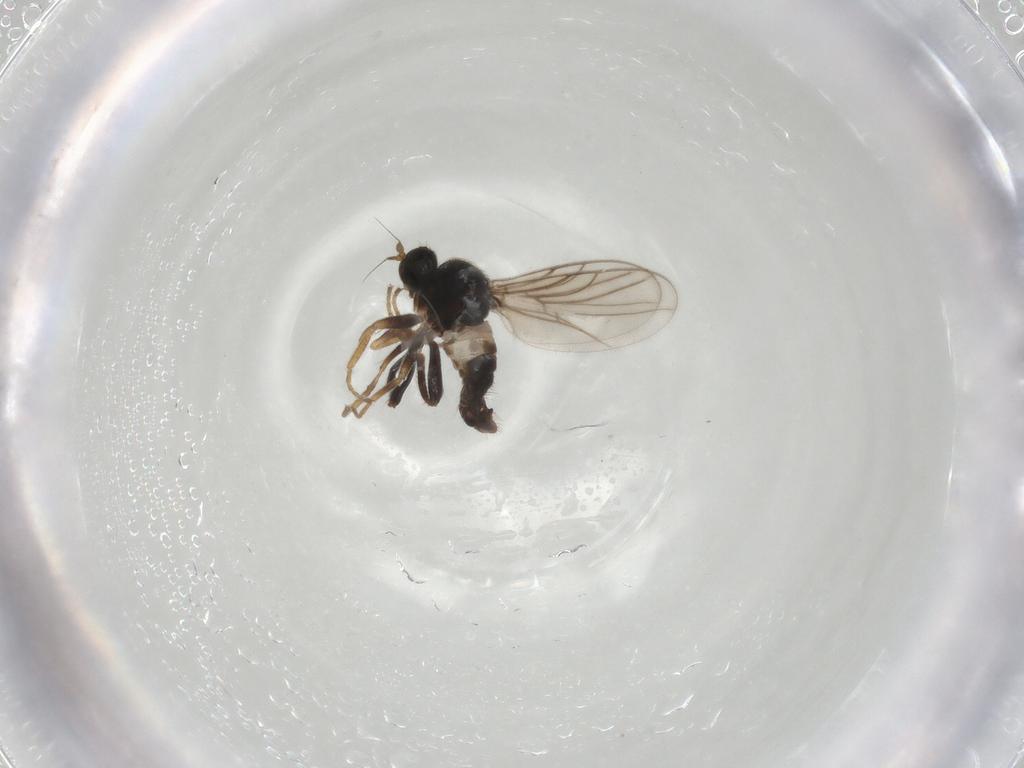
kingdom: Animalia
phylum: Arthropoda
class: Insecta
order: Diptera
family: Hybotidae
